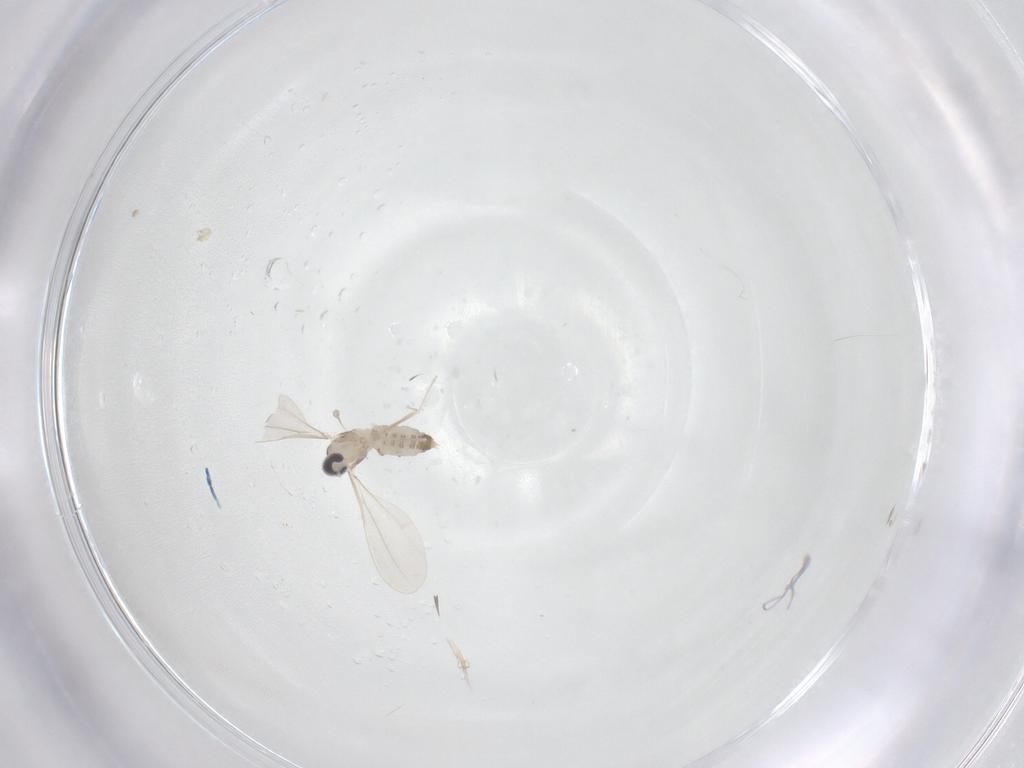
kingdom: Animalia
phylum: Arthropoda
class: Insecta
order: Diptera
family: Cecidomyiidae
